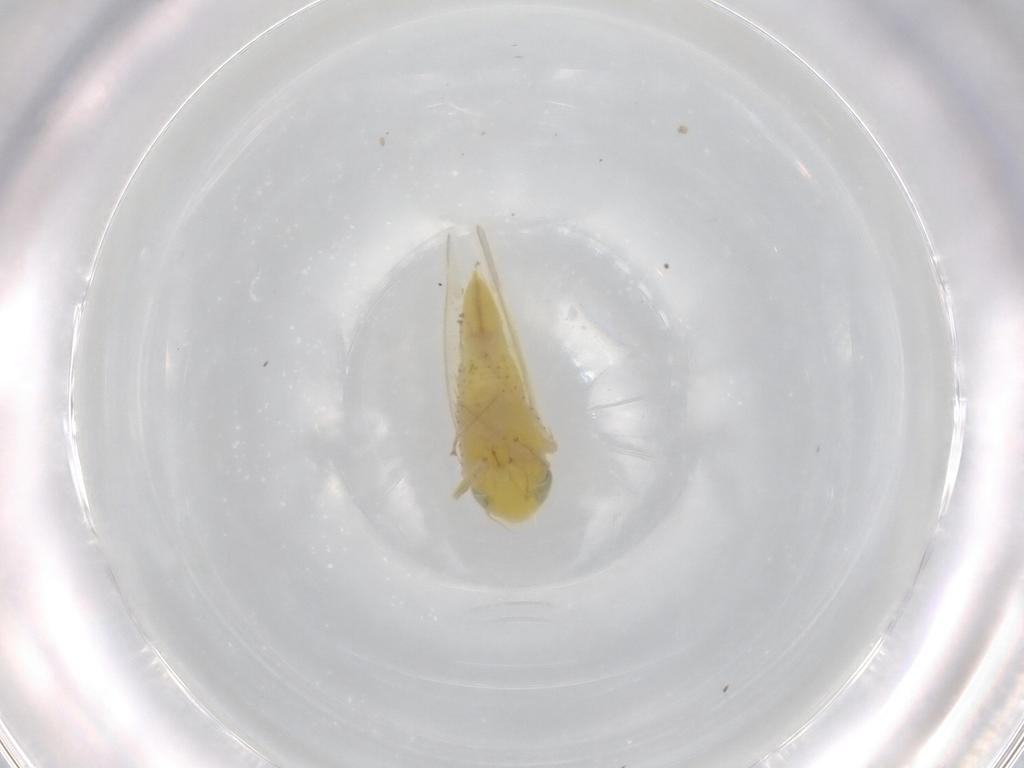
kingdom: Animalia
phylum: Arthropoda
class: Insecta
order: Hemiptera
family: Cicadellidae
